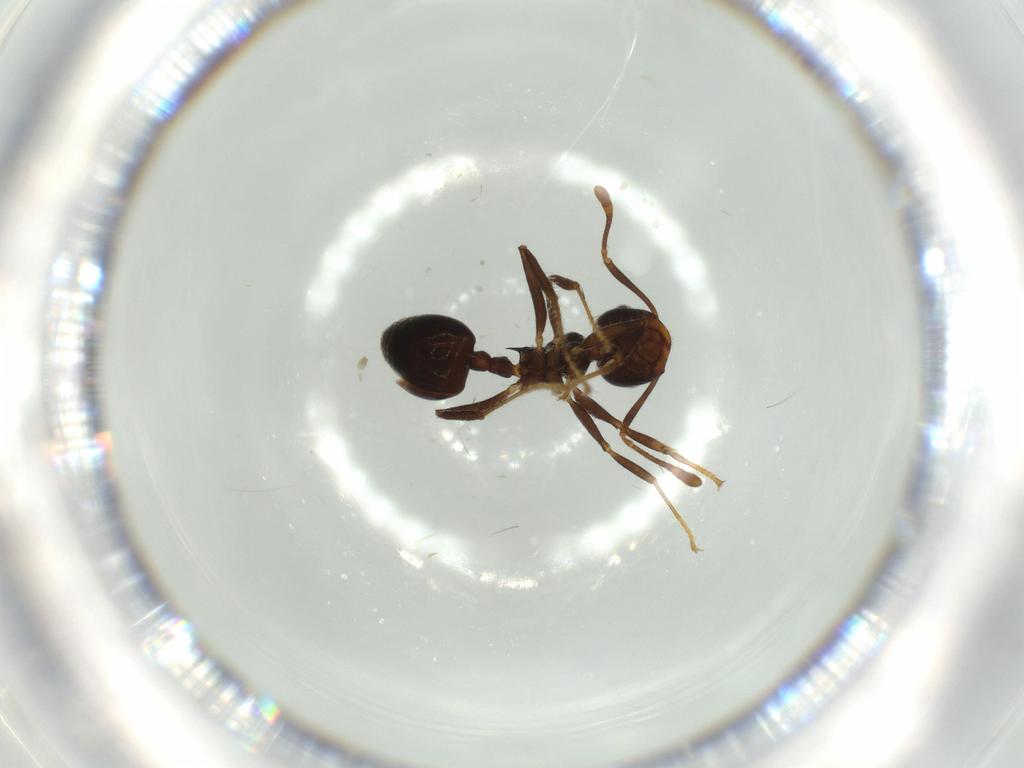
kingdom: Animalia
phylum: Arthropoda
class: Insecta
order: Hymenoptera
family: Formicidae
